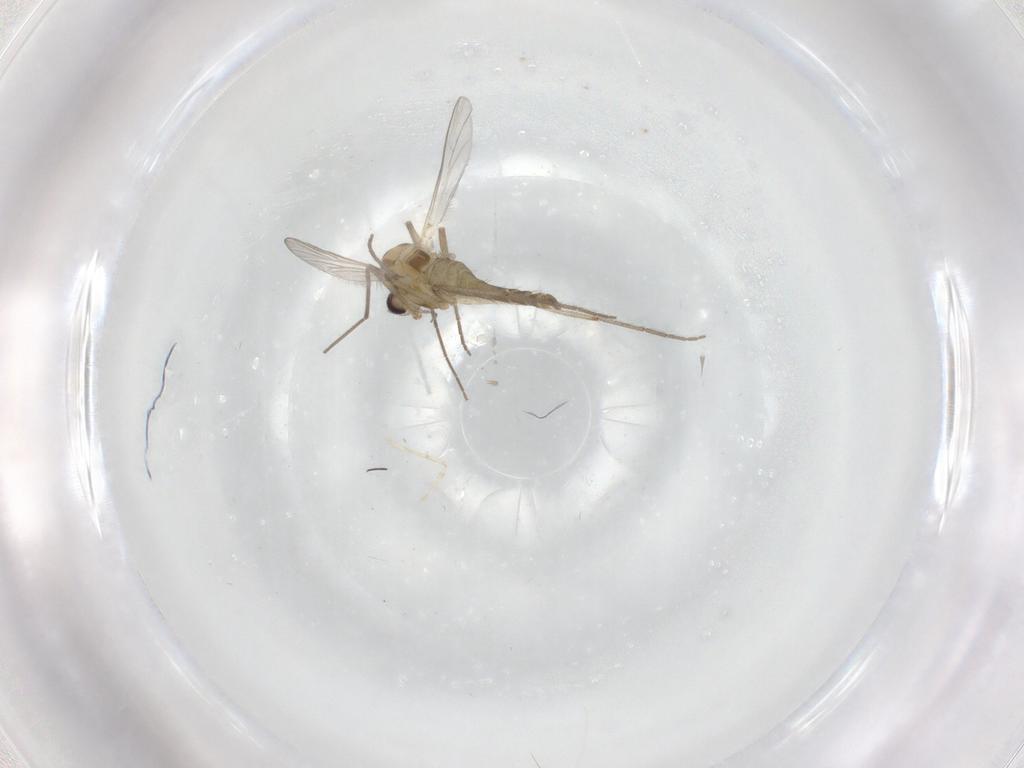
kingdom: Animalia
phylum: Arthropoda
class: Insecta
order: Diptera
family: Chironomidae
